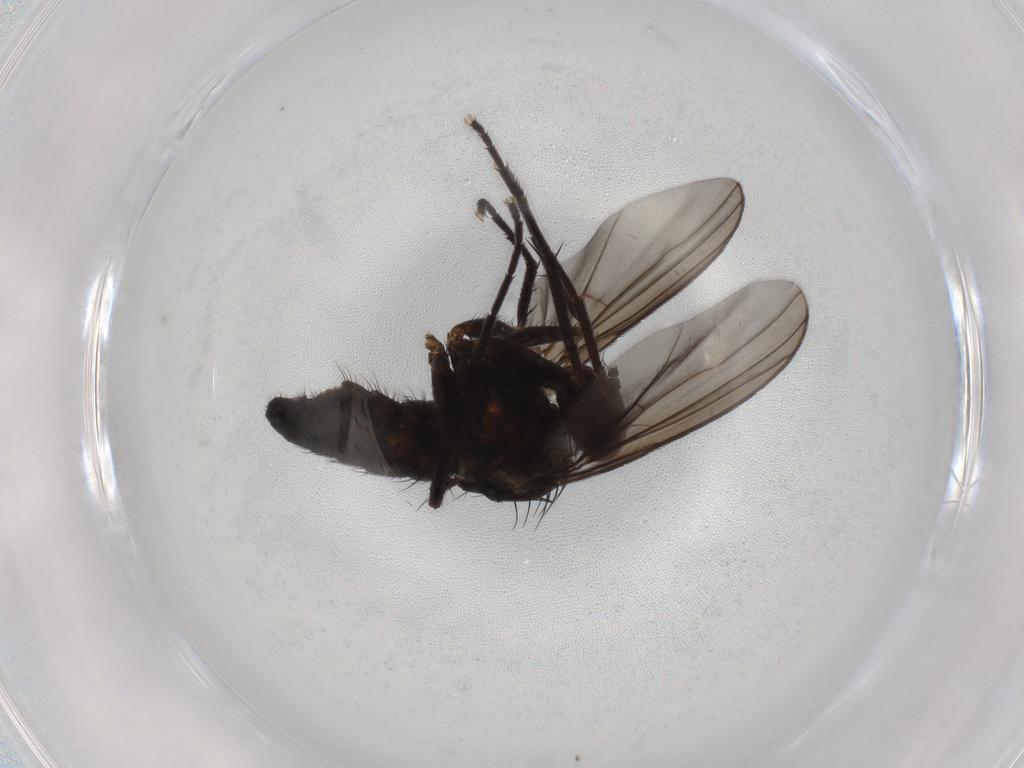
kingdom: Animalia
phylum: Arthropoda
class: Insecta
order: Diptera
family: Dolichopodidae
